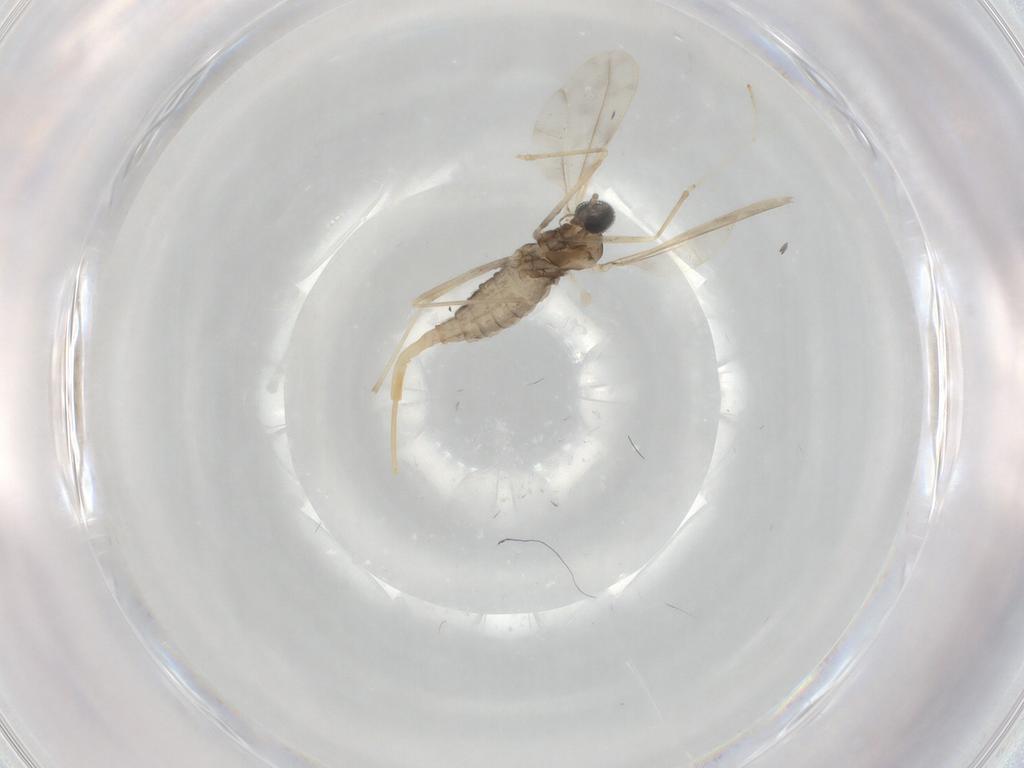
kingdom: Animalia
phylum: Arthropoda
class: Insecta
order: Diptera
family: Cecidomyiidae
